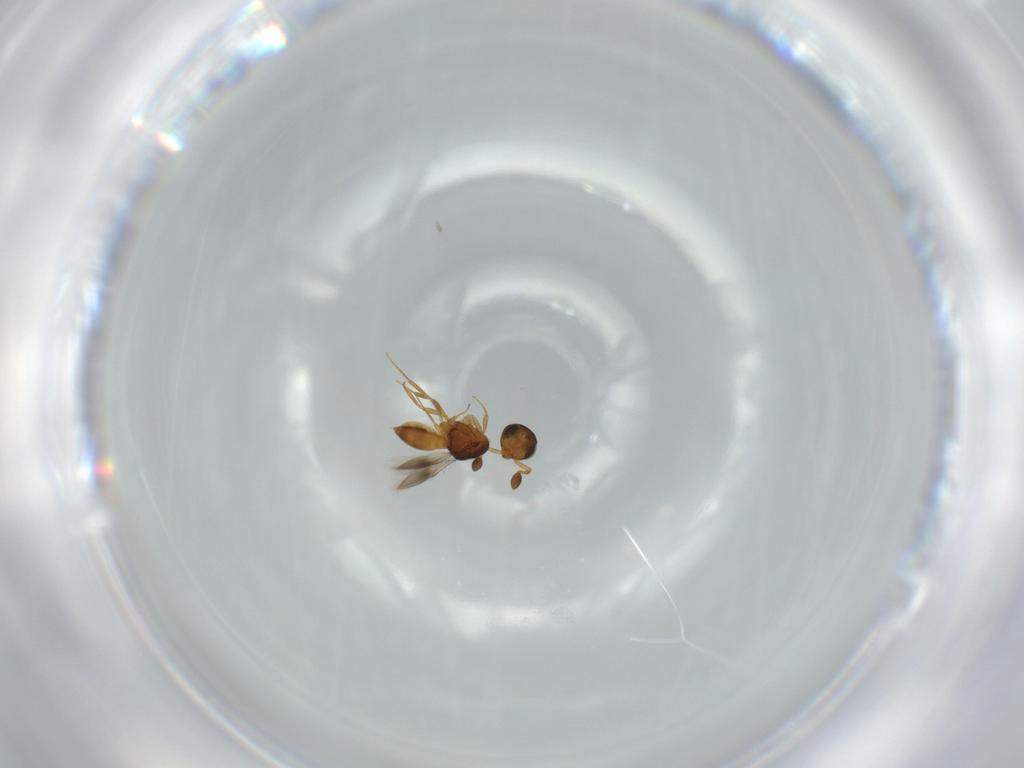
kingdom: Animalia
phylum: Arthropoda
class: Insecta
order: Hymenoptera
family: Scelionidae
